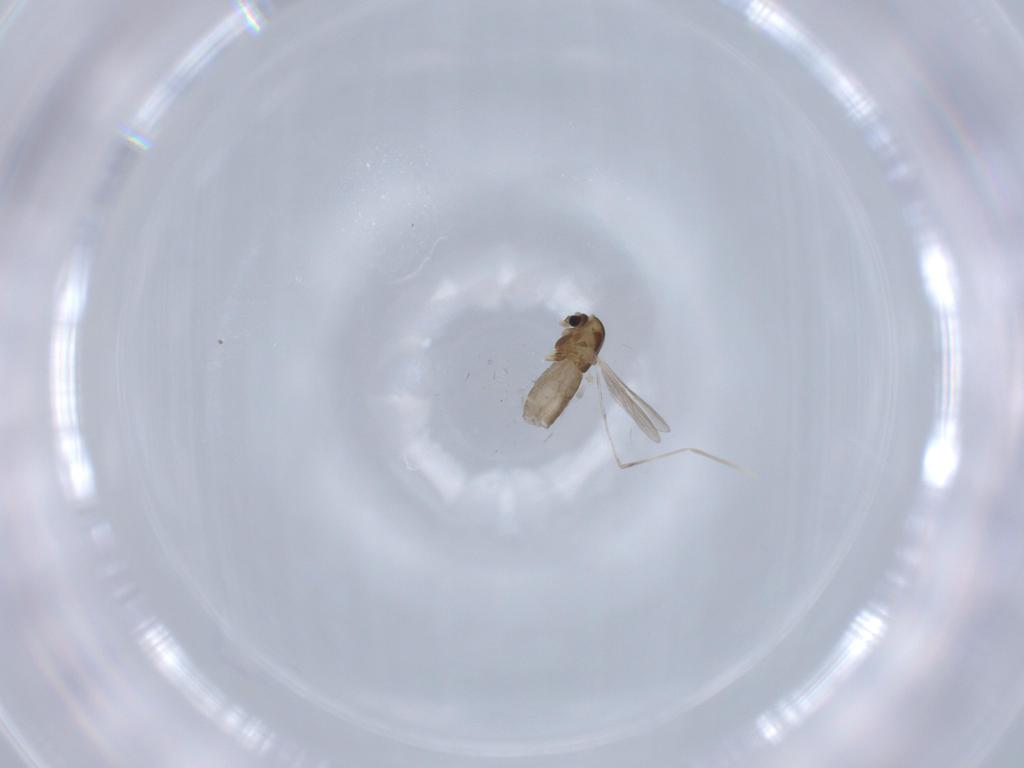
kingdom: Animalia
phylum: Arthropoda
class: Insecta
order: Diptera
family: Chironomidae
